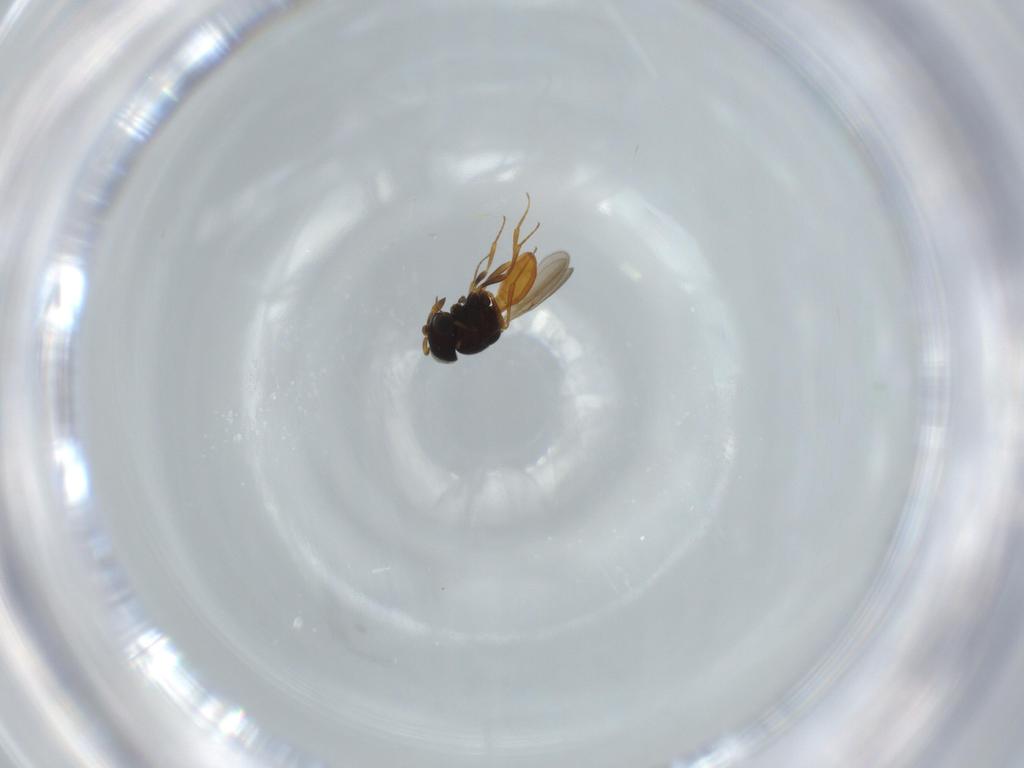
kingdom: Animalia
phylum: Arthropoda
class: Insecta
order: Hymenoptera
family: Scelionidae
